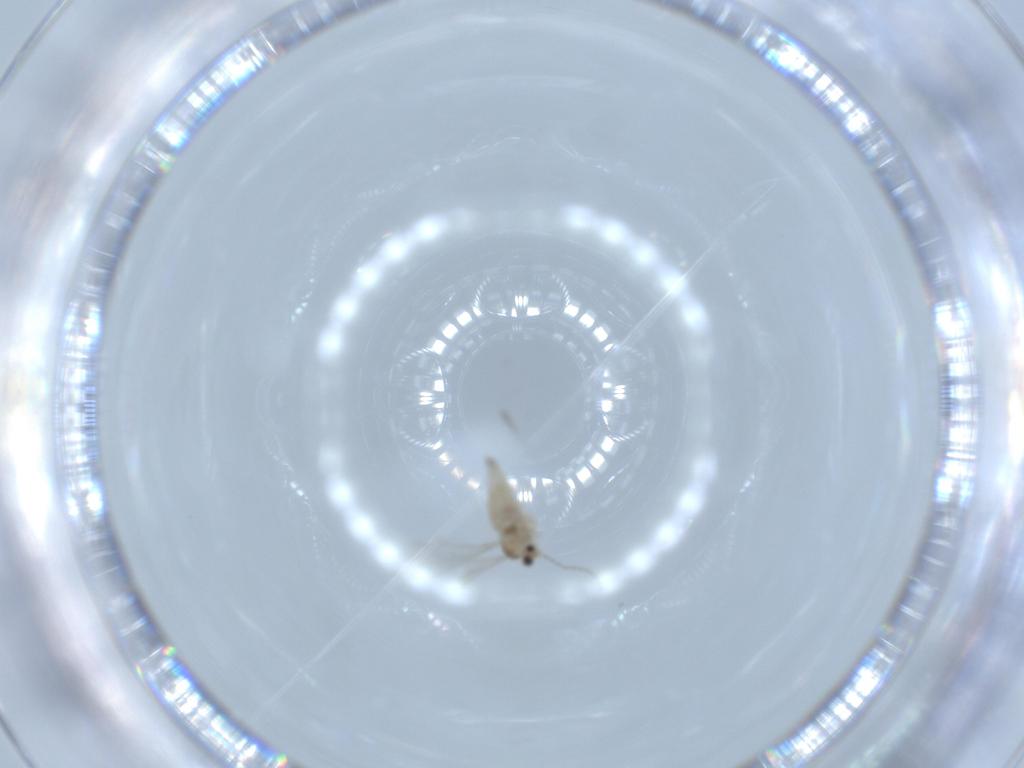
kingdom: Animalia
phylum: Arthropoda
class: Insecta
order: Diptera
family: Cecidomyiidae
